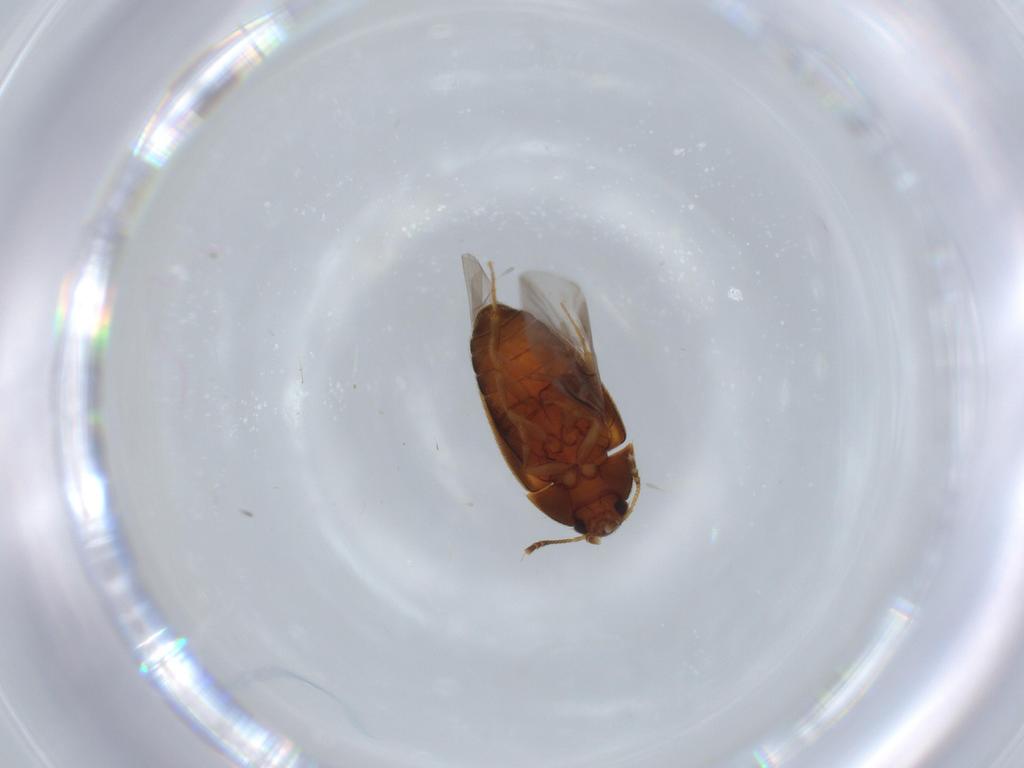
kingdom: Animalia
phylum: Arthropoda
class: Insecta
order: Coleoptera
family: Mycetophagidae
